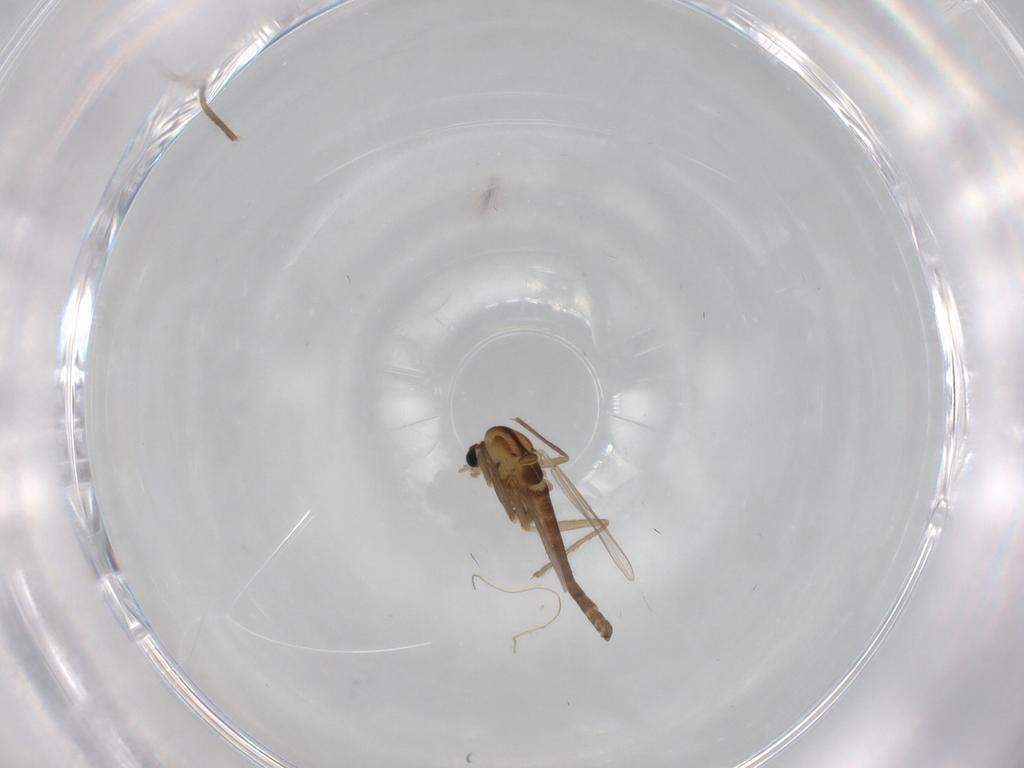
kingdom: Animalia
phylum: Arthropoda
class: Insecta
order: Diptera
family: Chironomidae
